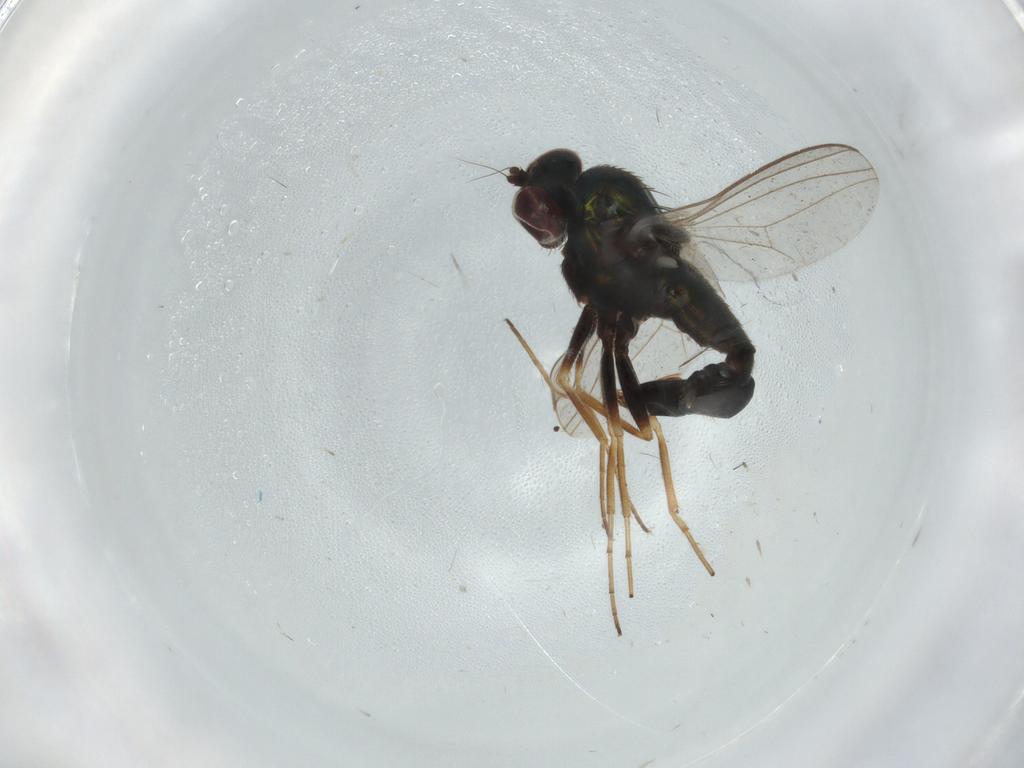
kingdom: Animalia
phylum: Arthropoda
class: Insecta
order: Diptera
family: Dolichopodidae
